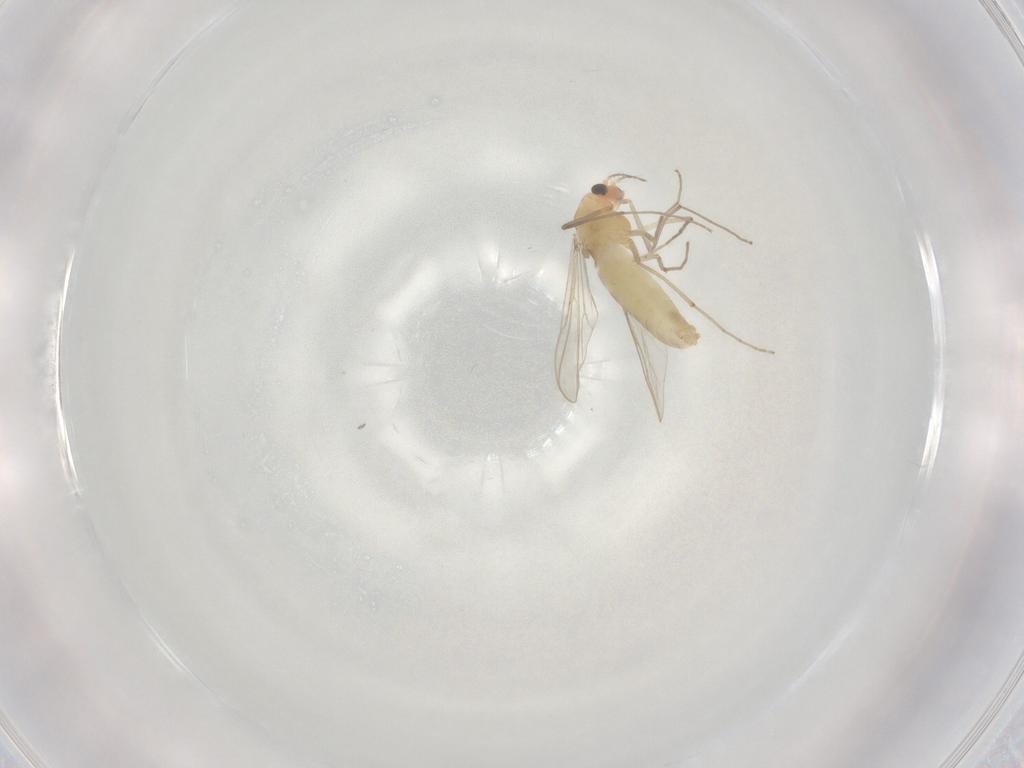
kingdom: Animalia
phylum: Arthropoda
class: Insecta
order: Diptera
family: Chironomidae
